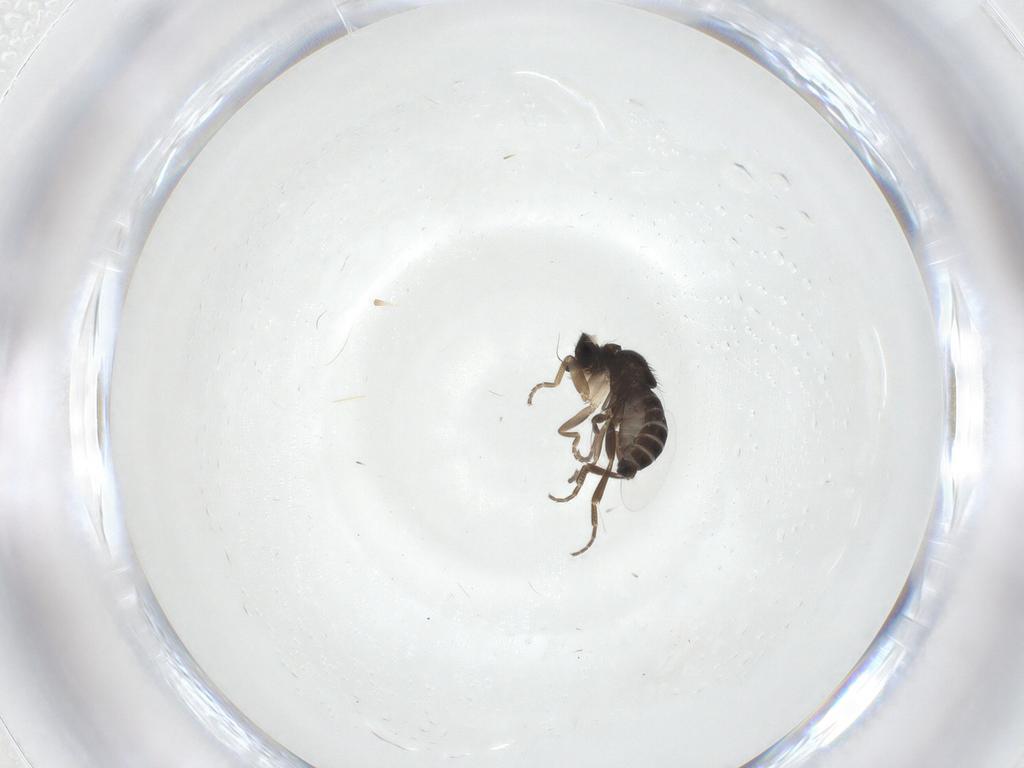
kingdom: Animalia
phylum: Arthropoda
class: Insecta
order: Diptera
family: Phoridae
